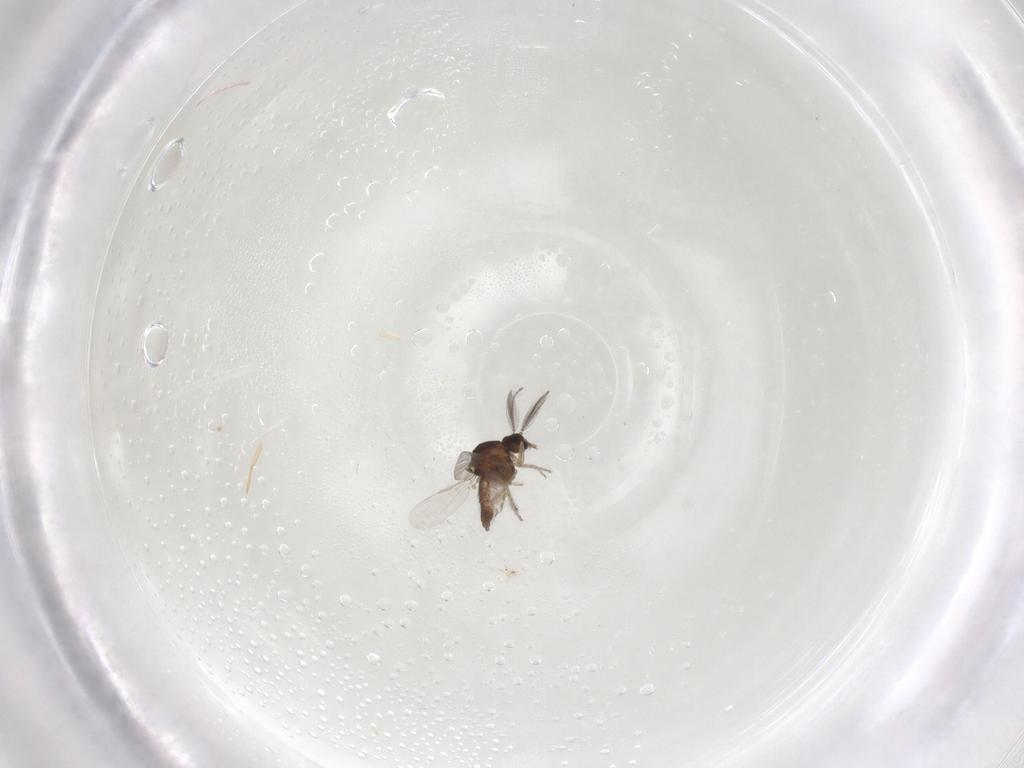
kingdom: Animalia
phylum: Arthropoda
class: Insecta
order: Diptera
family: Ceratopogonidae
